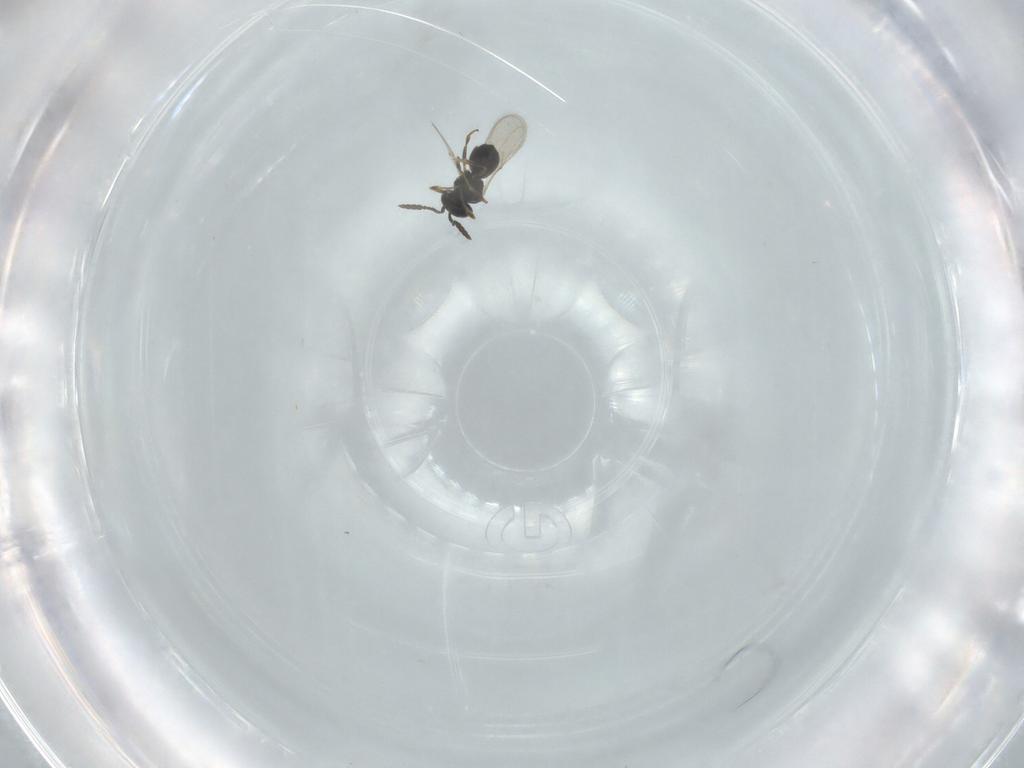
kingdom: Animalia
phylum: Arthropoda
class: Insecta
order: Hymenoptera
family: Scelionidae
